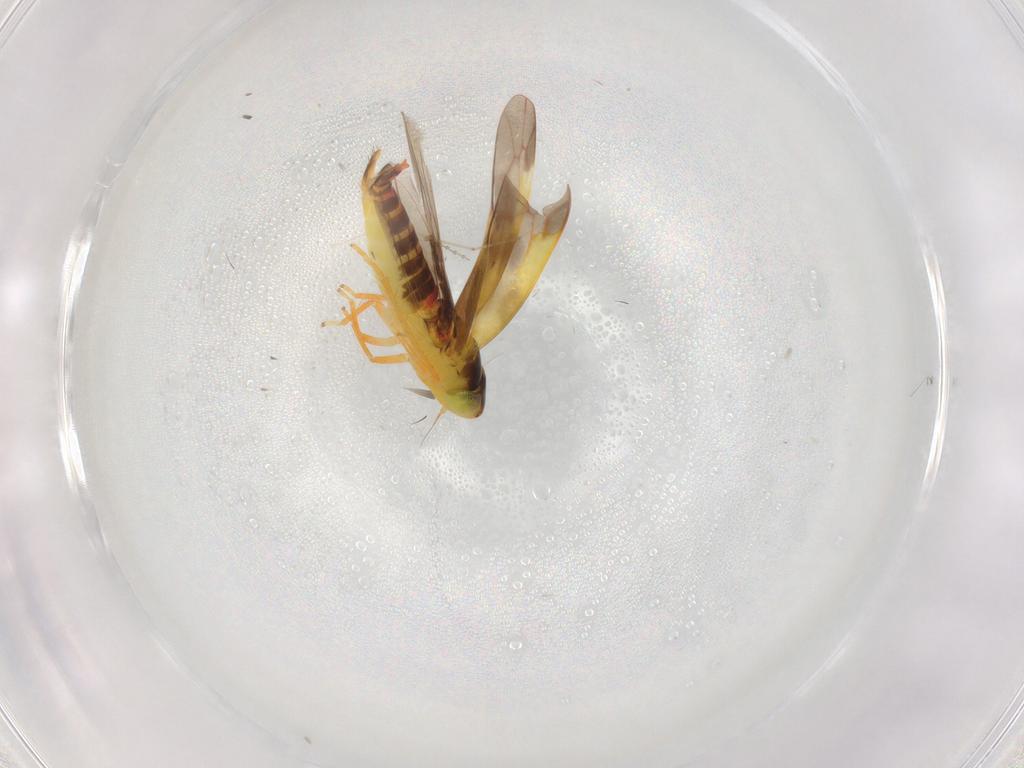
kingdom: Animalia
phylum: Arthropoda
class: Insecta
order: Hemiptera
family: Cicadellidae
